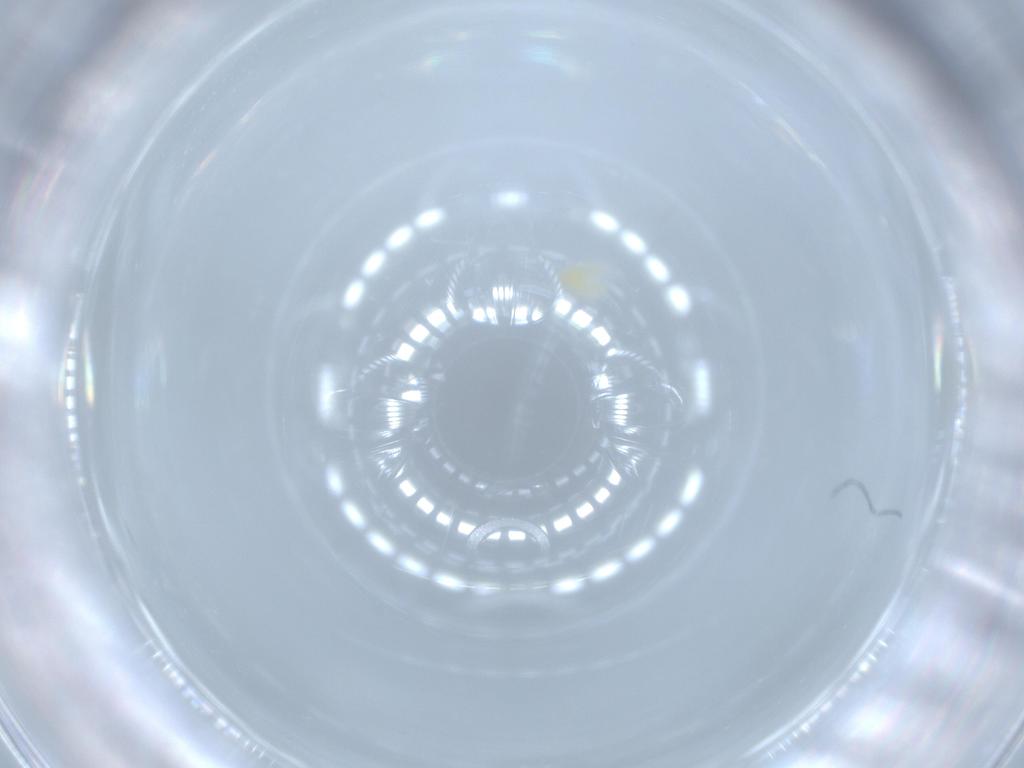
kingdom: Animalia
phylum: Arthropoda
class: Insecta
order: Hemiptera
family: Aleyrodidae
